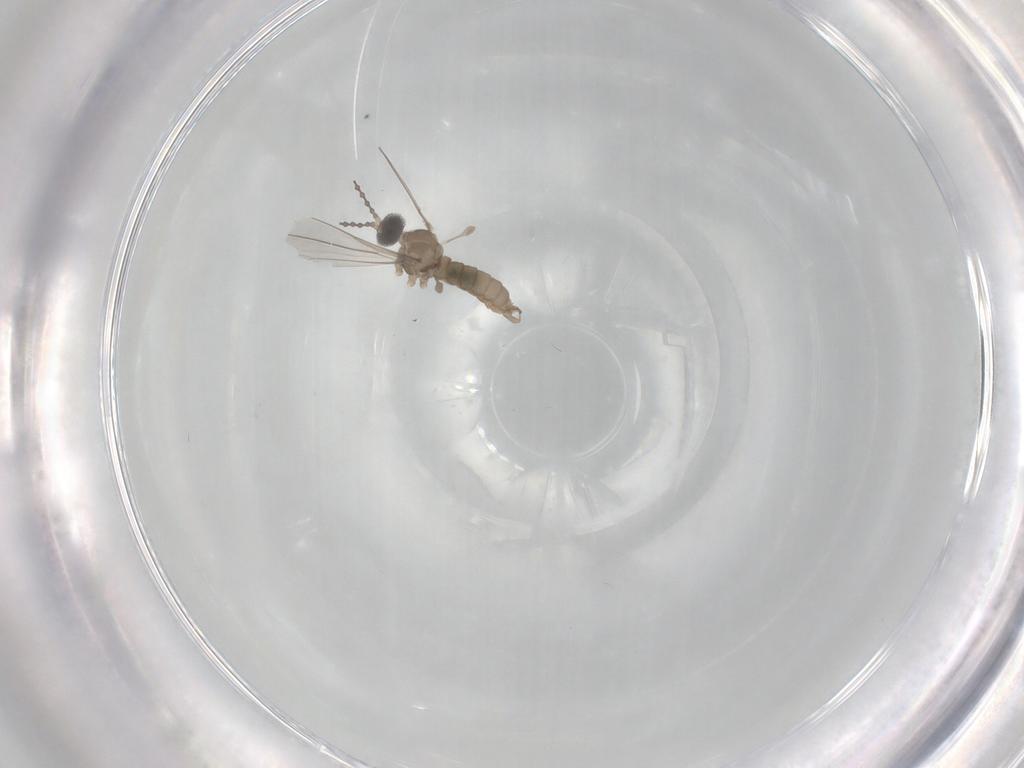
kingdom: Animalia
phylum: Arthropoda
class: Insecta
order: Diptera
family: Cecidomyiidae
